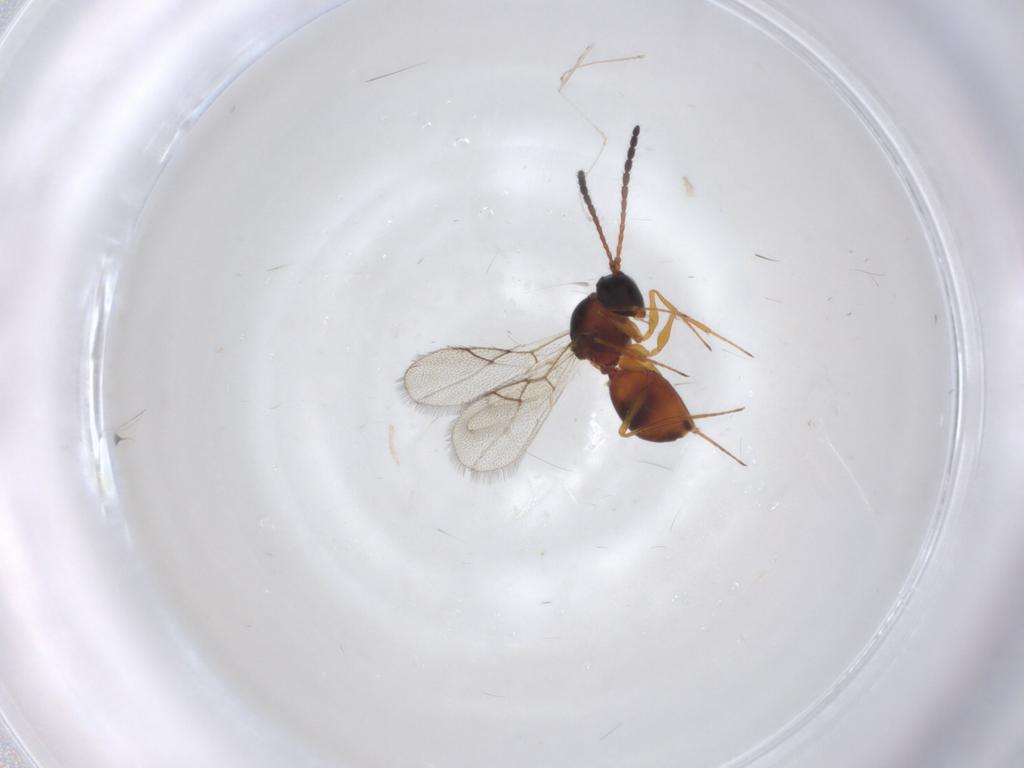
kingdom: Animalia
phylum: Arthropoda
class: Insecta
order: Hymenoptera
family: Figitidae
